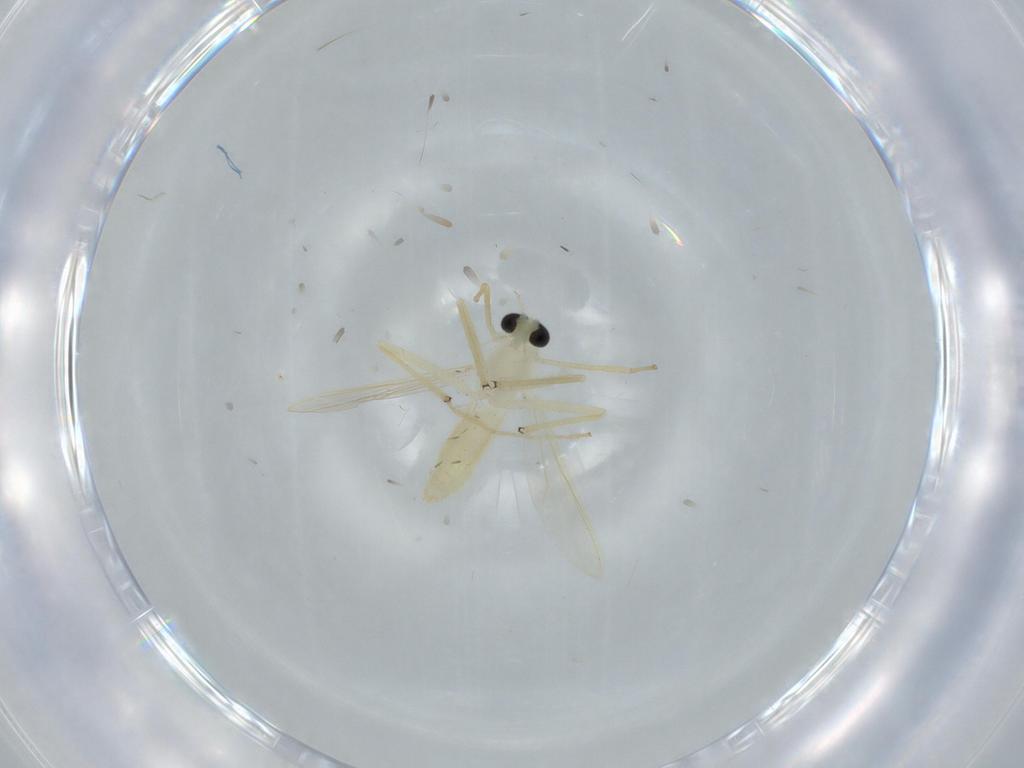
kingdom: Animalia
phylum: Arthropoda
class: Insecta
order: Diptera
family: Chironomidae
